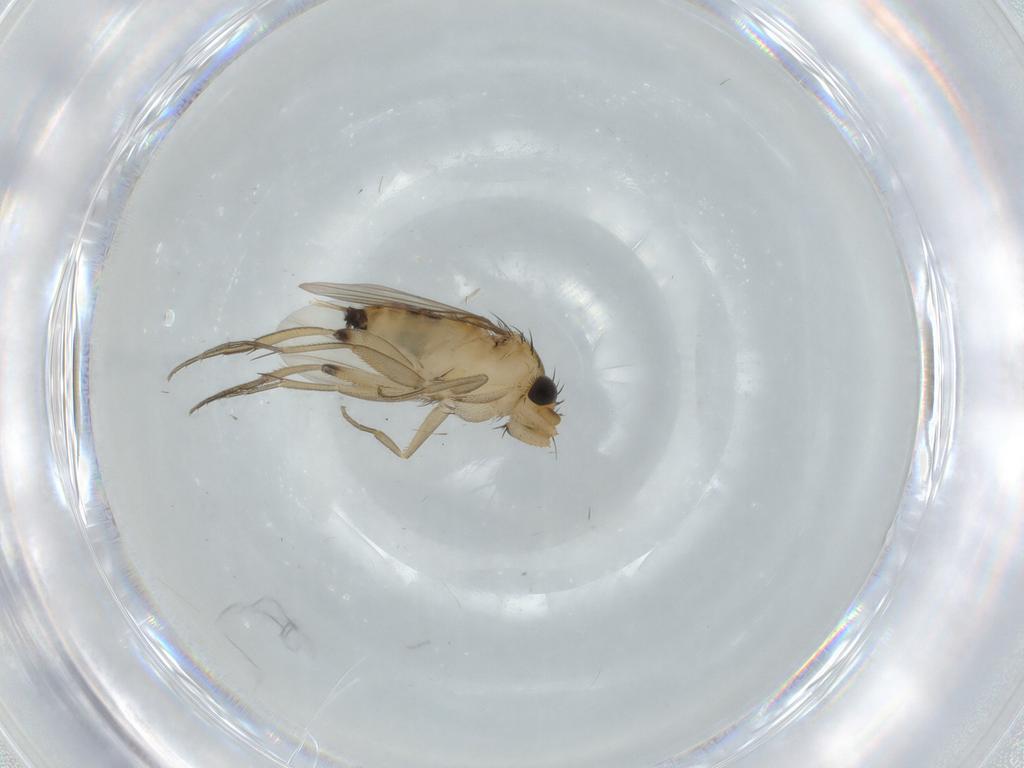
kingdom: Animalia
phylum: Arthropoda
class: Insecta
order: Diptera
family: Phoridae
